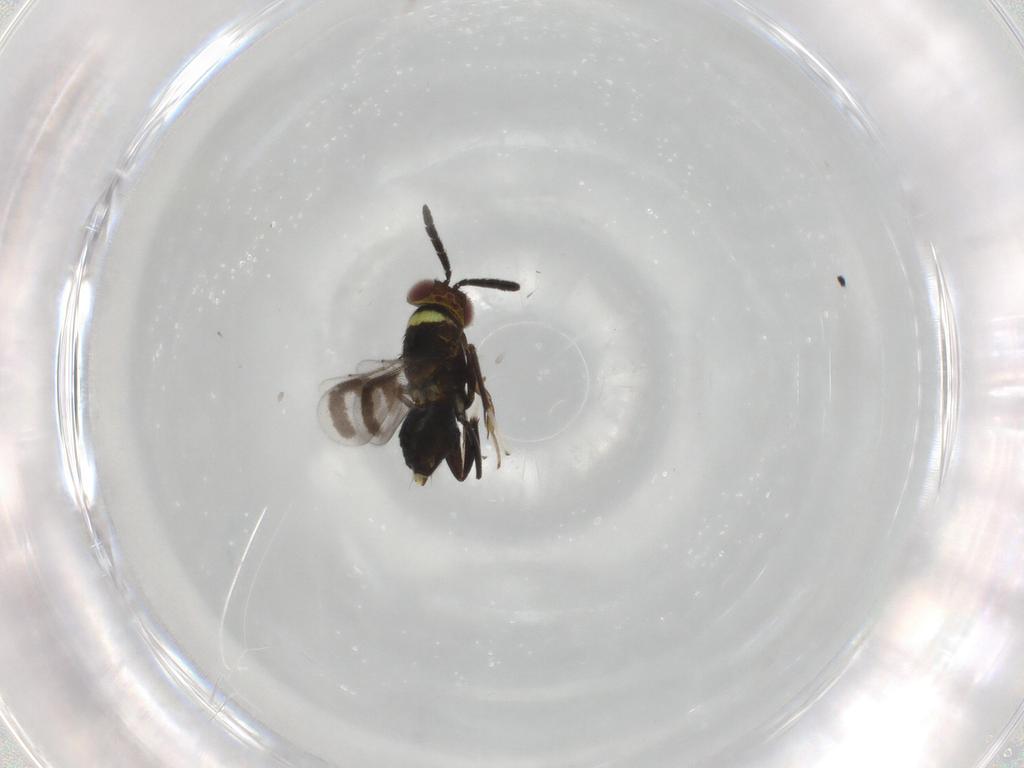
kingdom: Animalia
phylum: Arthropoda
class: Insecta
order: Hymenoptera
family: Aphelinidae
